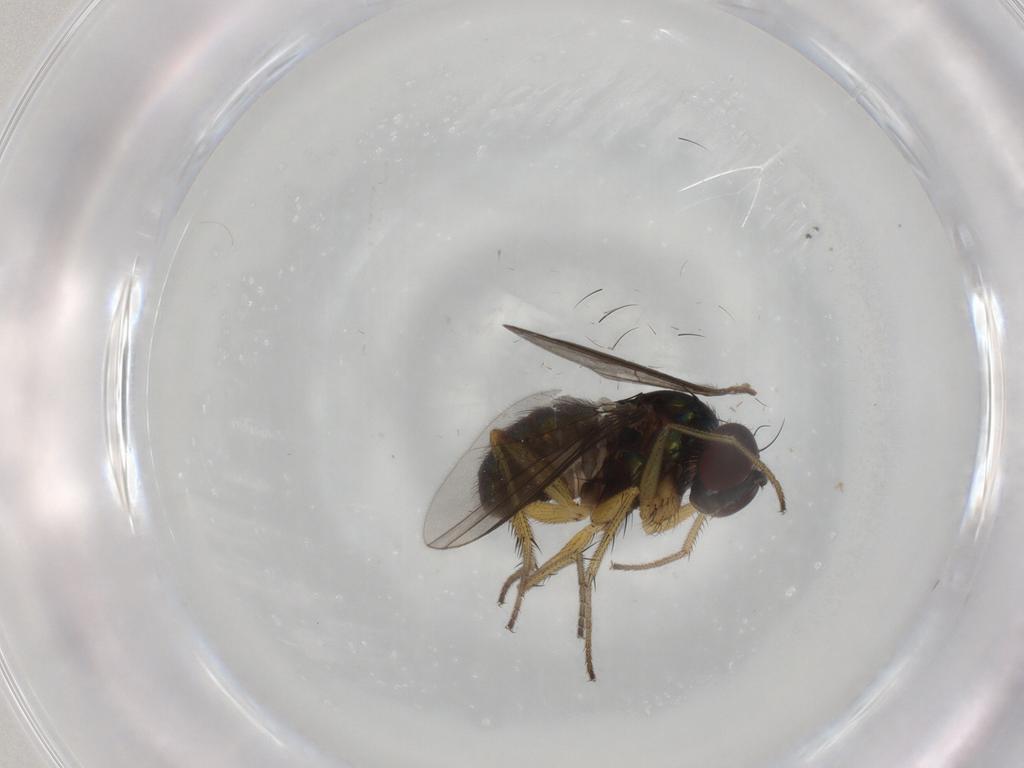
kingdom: Animalia
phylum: Arthropoda
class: Insecta
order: Diptera
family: Dolichopodidae
